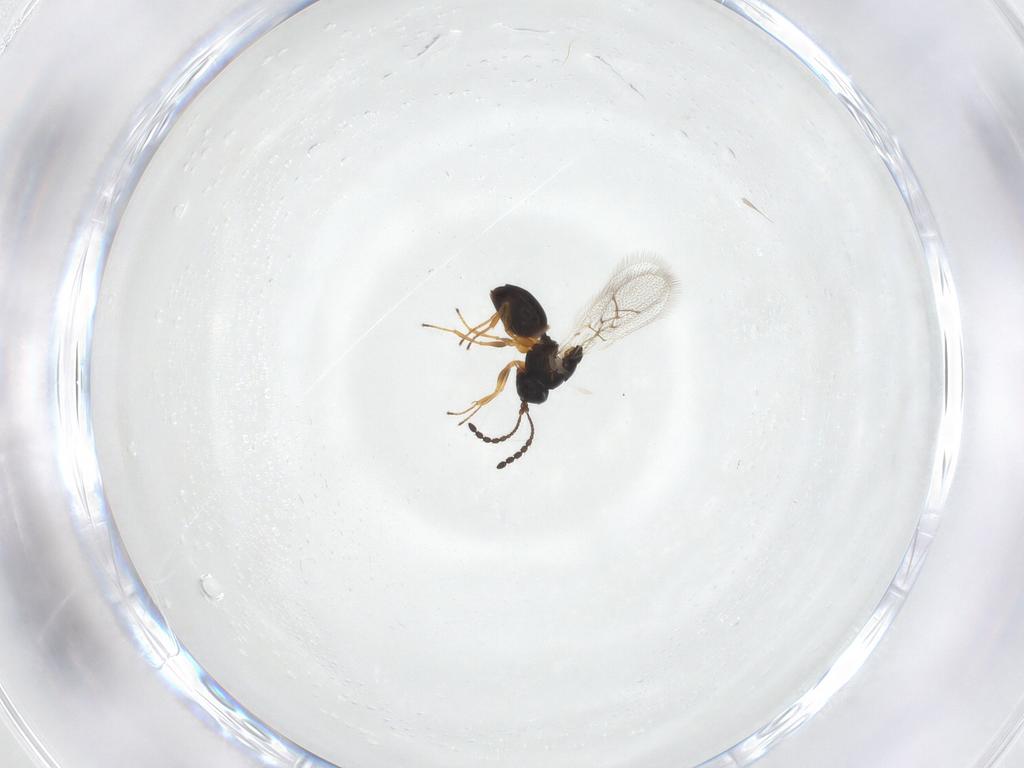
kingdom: Animalia
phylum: Arthropoda
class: Insecta
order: Hymenoptera
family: Figitidae
